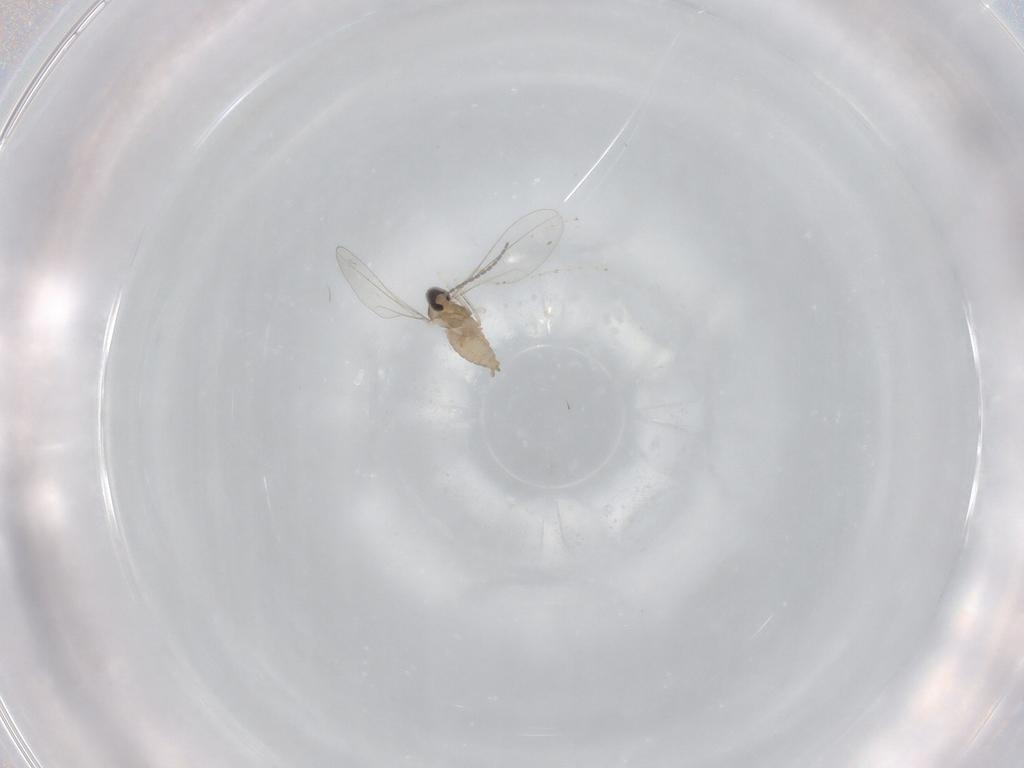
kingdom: Animalia
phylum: Arthropoda
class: Insecta
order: Diptera
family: Cecidomyiidae
